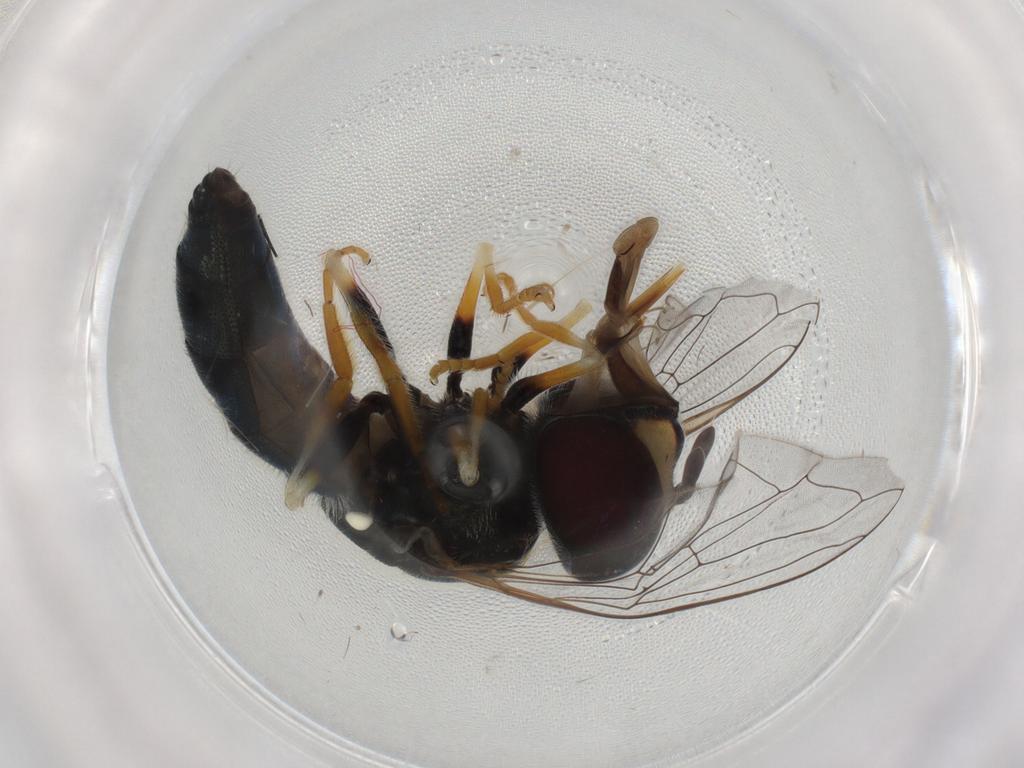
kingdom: Animalia
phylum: Arthropoda
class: Insecta
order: Diptera
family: Syrphidae
